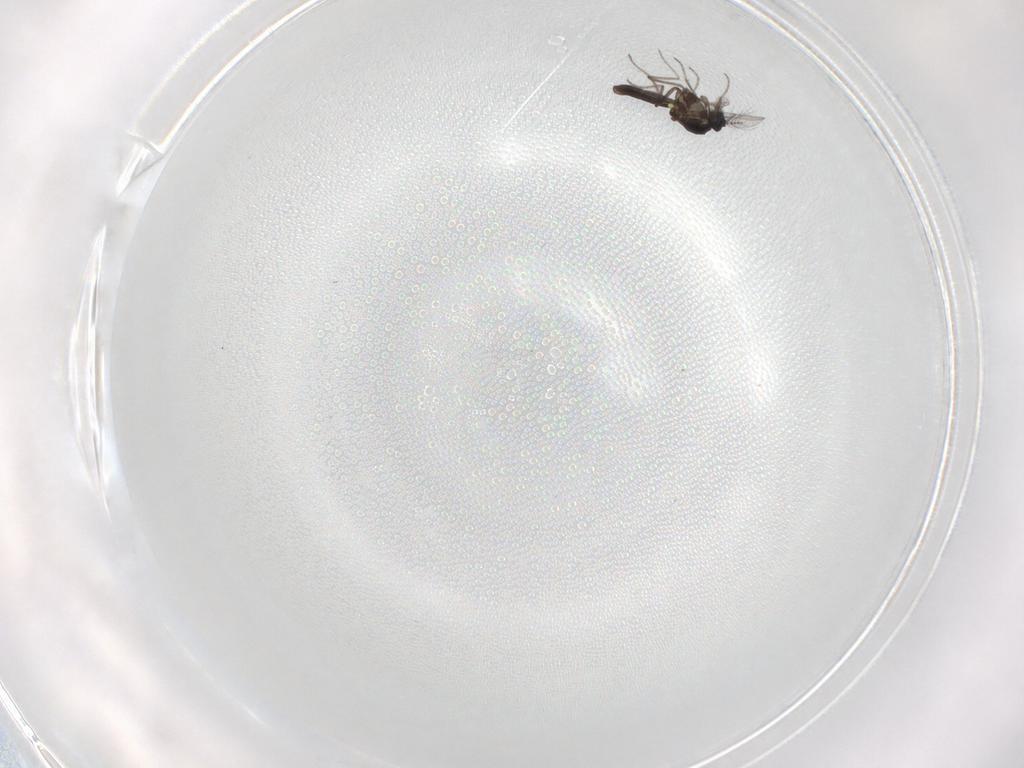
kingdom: Animalia
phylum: Arthropoda
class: Insecta
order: Diptera
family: Ceratopogonidae
